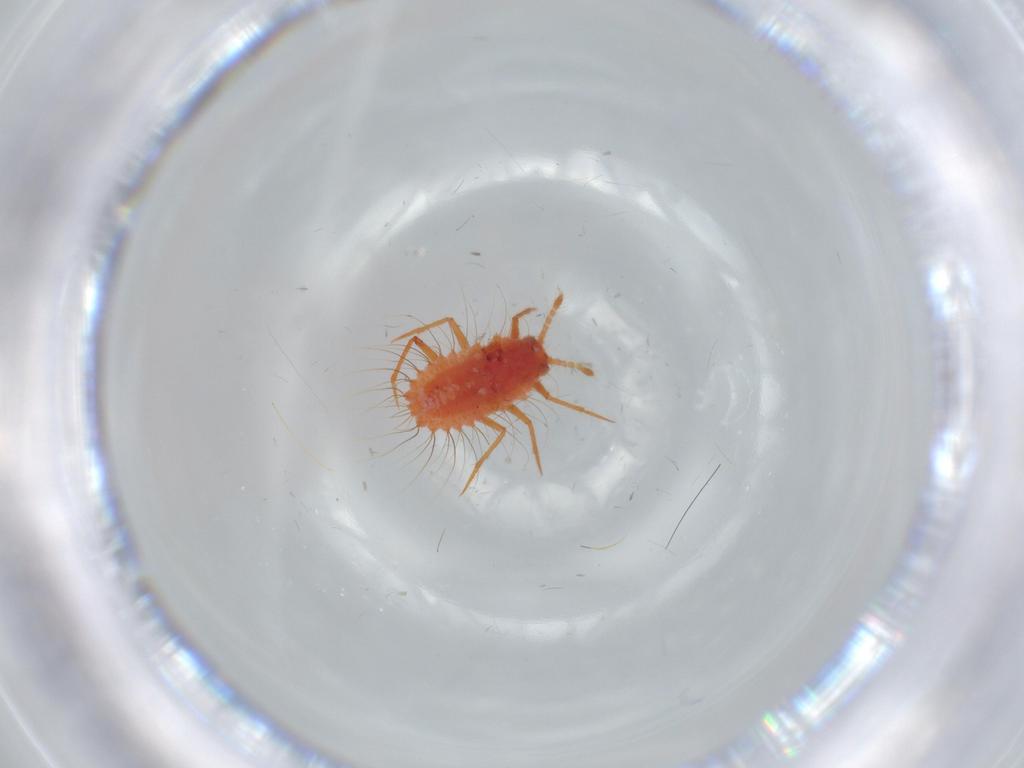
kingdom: Animalia
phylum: Arthropoda
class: Insecta
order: Hemiptera
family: Monophlebidae
